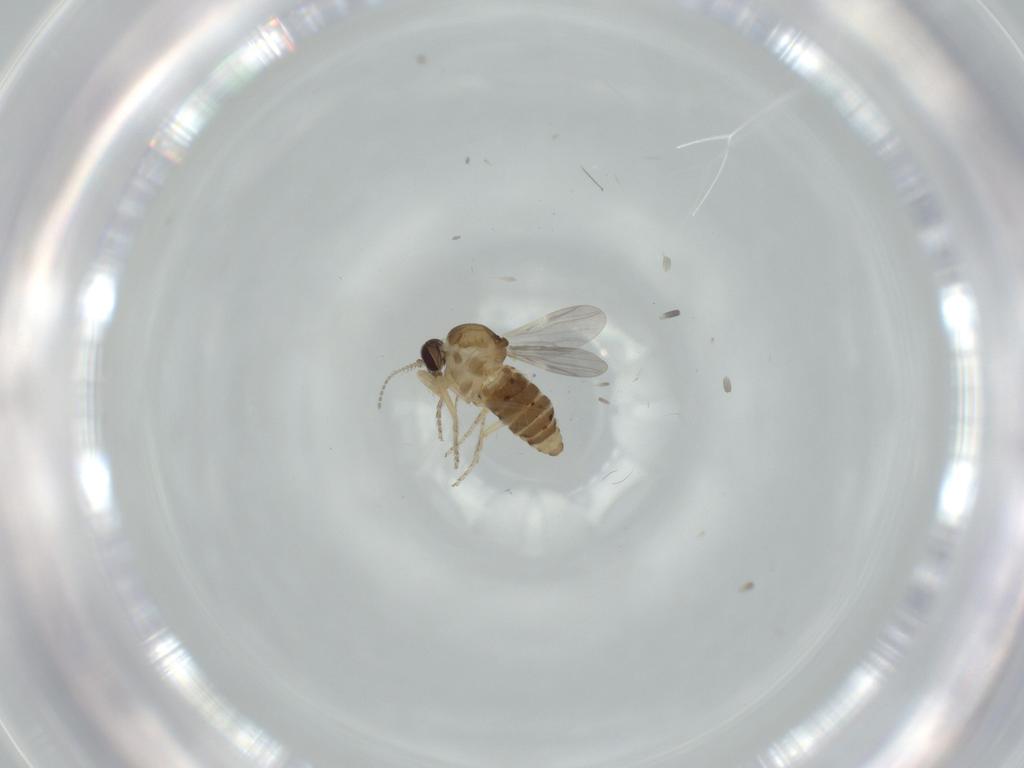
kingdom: Animalia
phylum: Arthropoda
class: Insecta
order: Diptera
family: Ceratopogonidae
